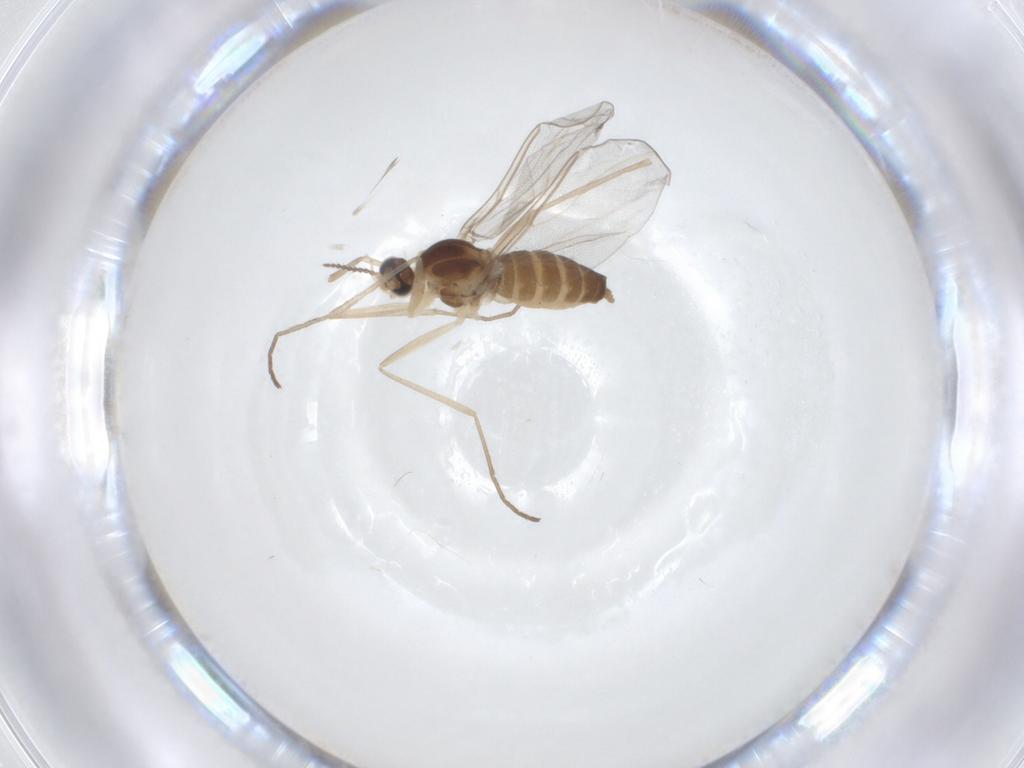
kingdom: Animalia
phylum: Arthropoda
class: Insecta
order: Diptera
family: Cecidomyiidae
